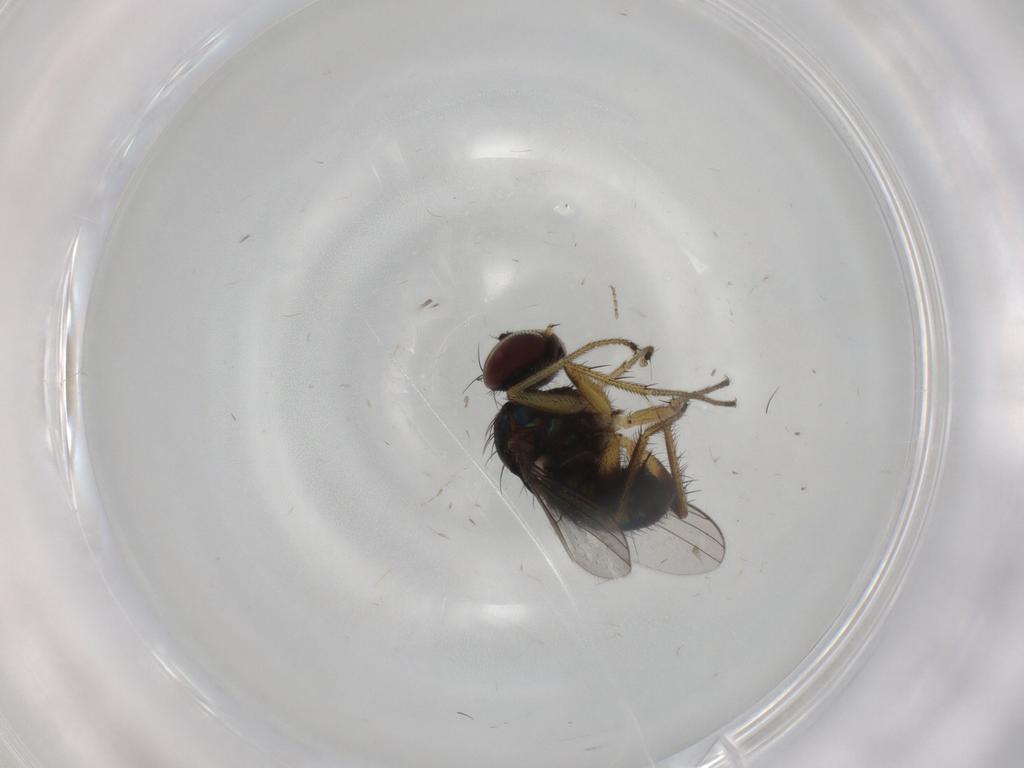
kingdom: Animalia
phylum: Arthropoda
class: Insecta
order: Diptera
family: Dolichopodidae
